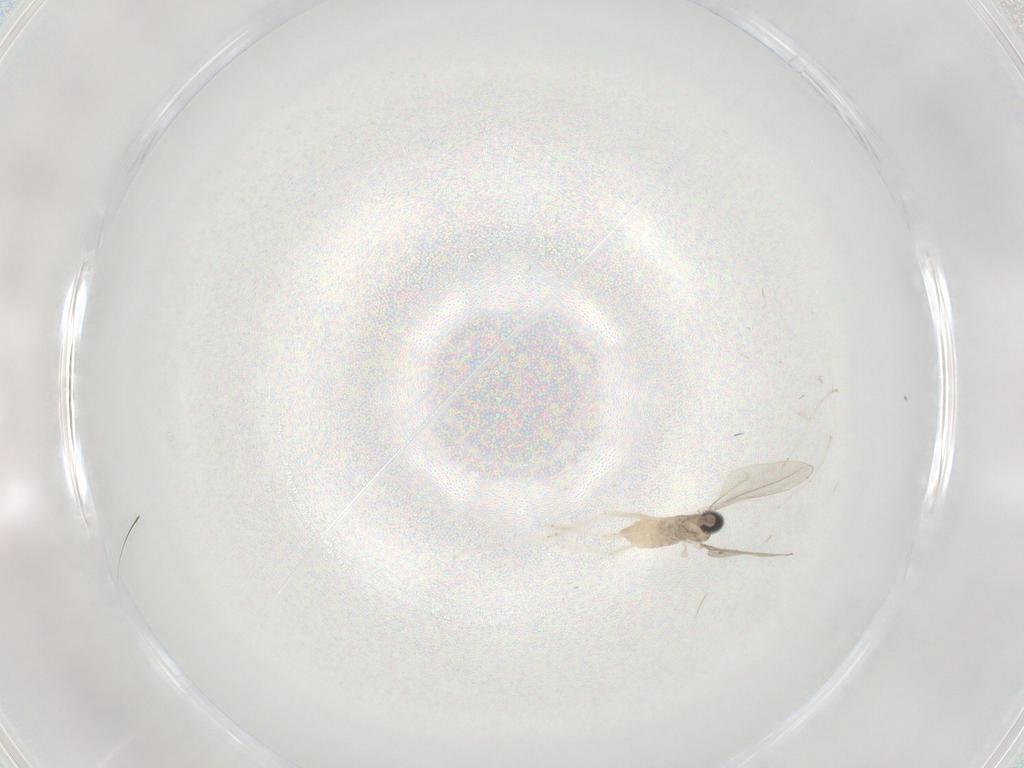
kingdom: Animalia
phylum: Arthropoda
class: Insecta
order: Diptera
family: Cecidomyiidae
